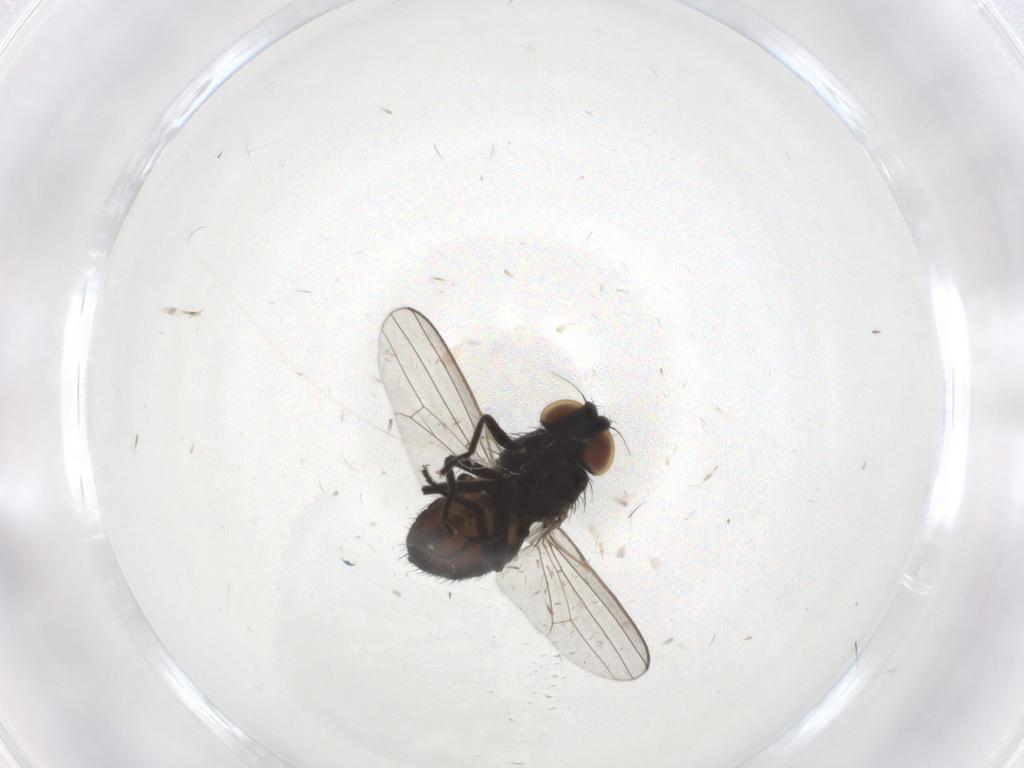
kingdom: Animalia
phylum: Arthropoda
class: Insecta
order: Diptera
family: Milichiidae
